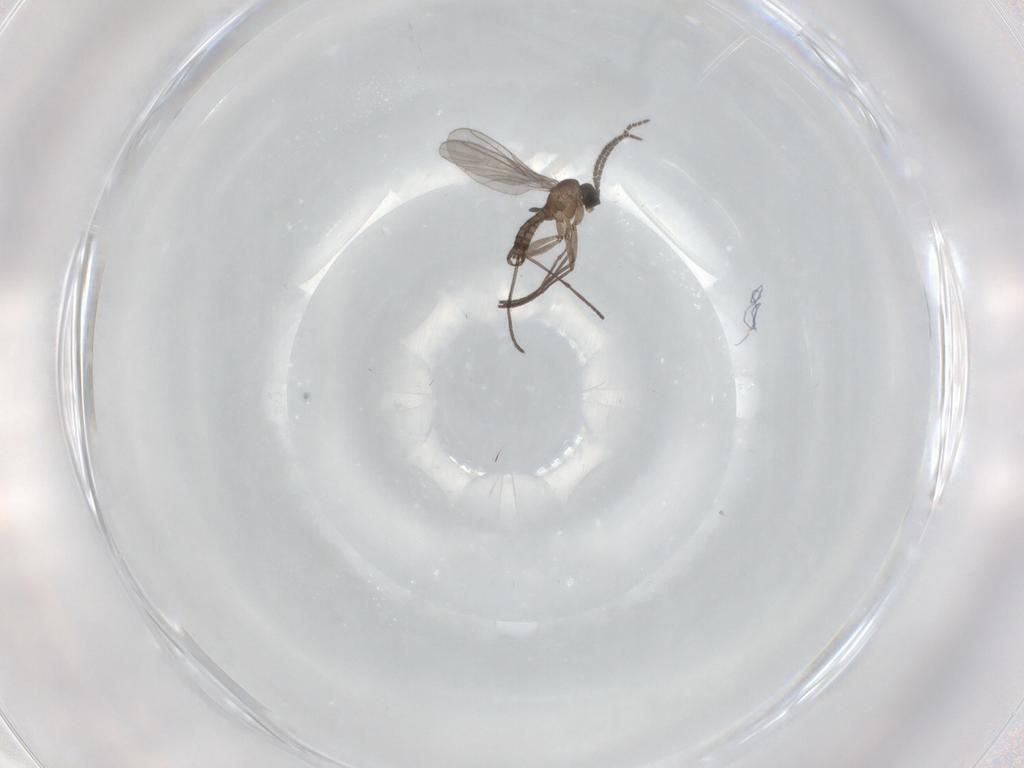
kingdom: Animalia
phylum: Arthropoda
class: Insecta
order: Diptera
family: Sciaridae
